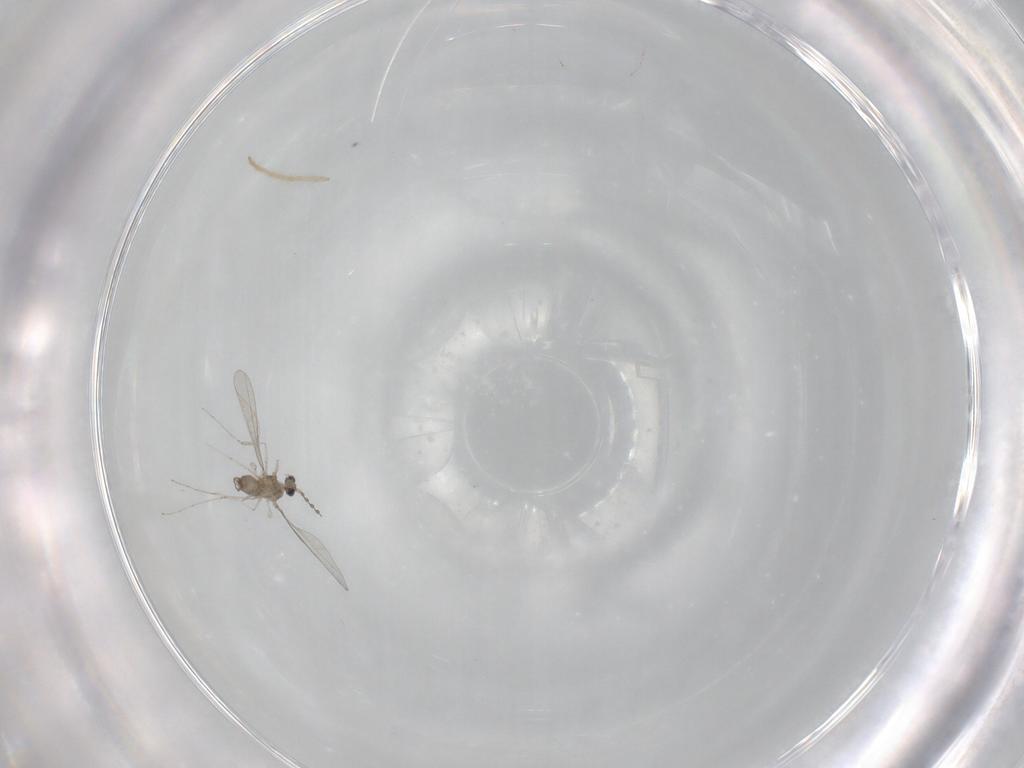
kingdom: Animalia
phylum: Arthropoda
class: Insecta
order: Diptera
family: Chironomidae
